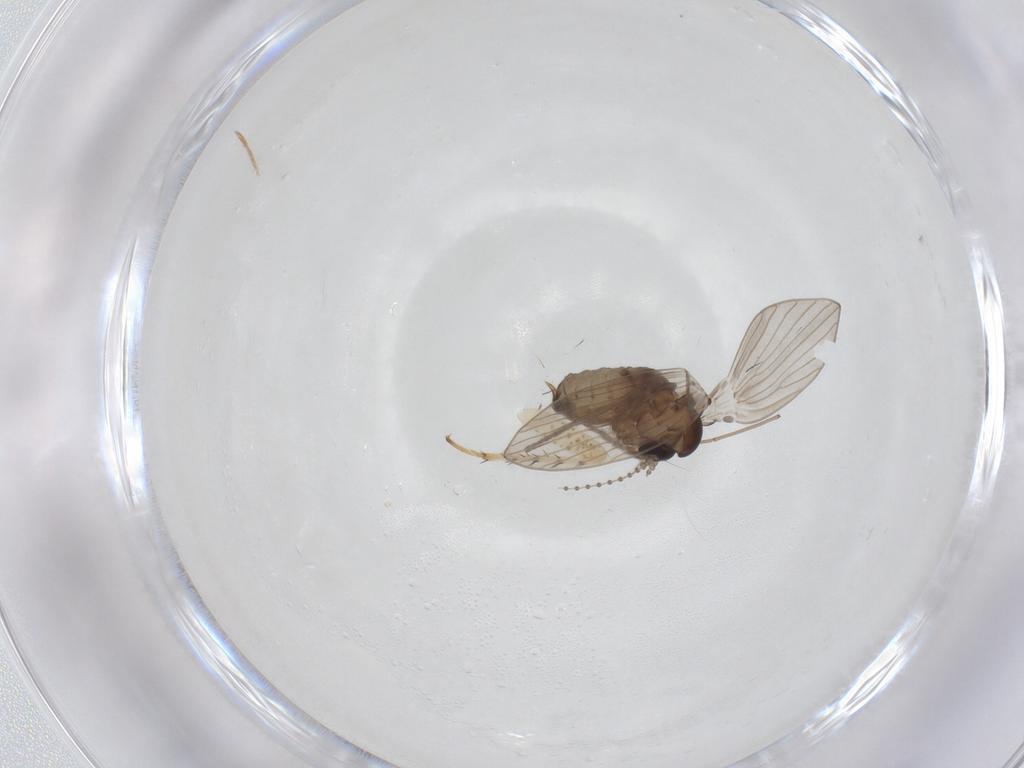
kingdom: Animalia
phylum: Arthropoda
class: Insecta
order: Diptera
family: Psychodidae
